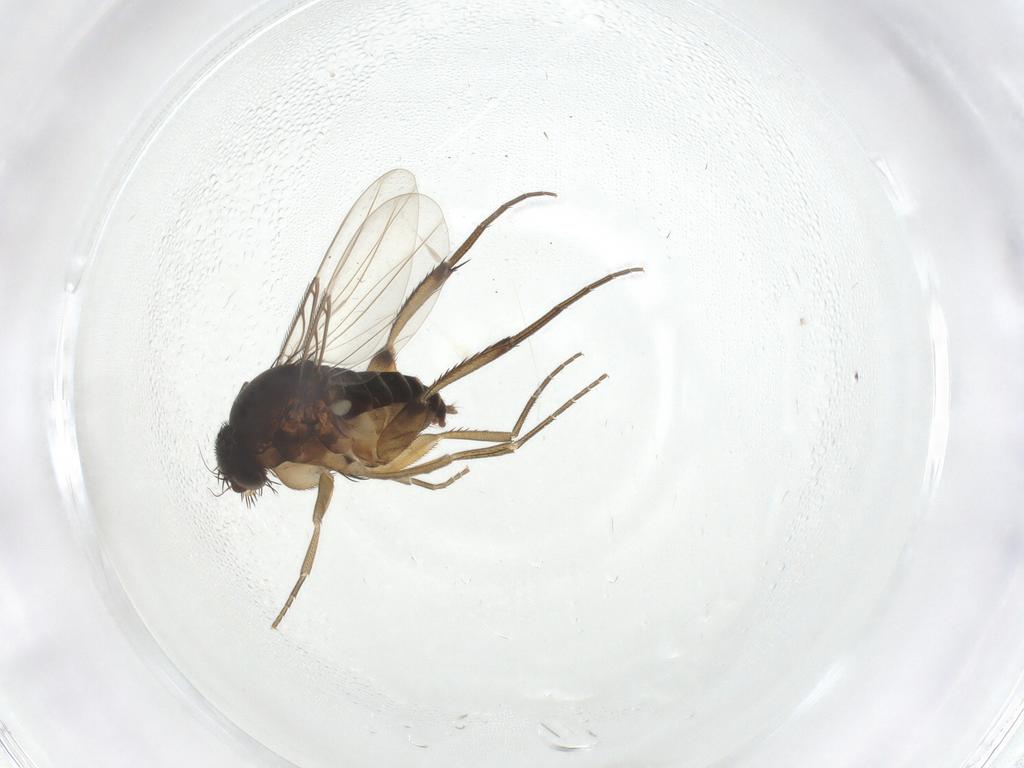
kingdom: Animalia
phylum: Arthropoda
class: Insecta
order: Diptera
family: Phoridae
